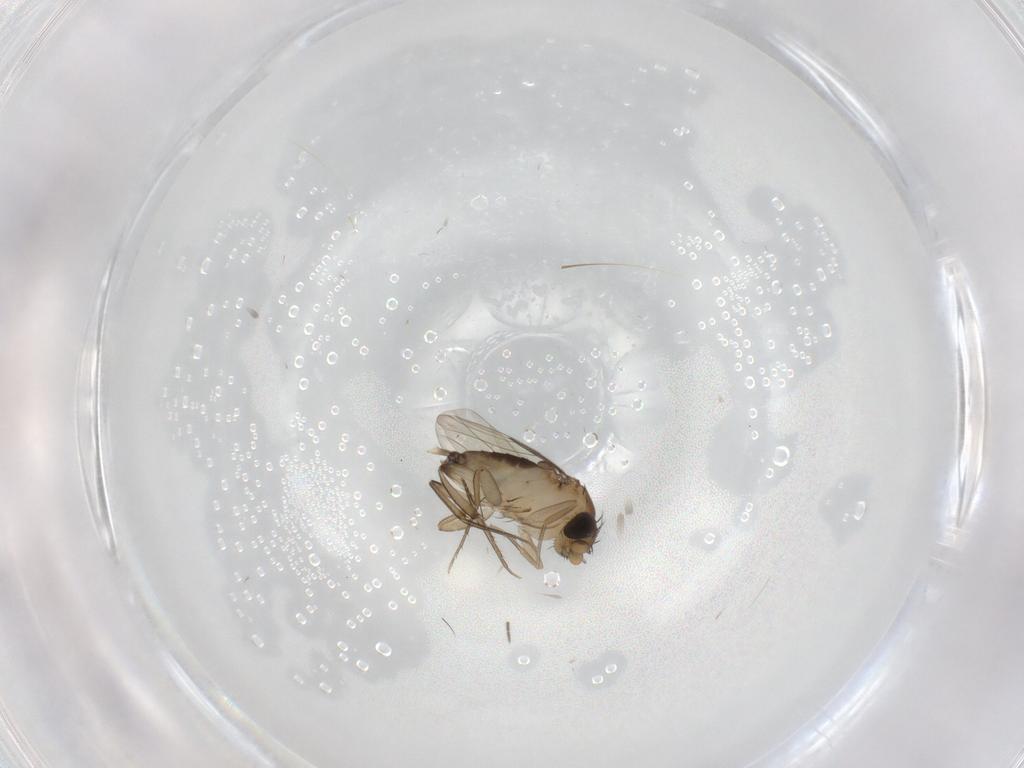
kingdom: Animalia
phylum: Arthropoda
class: Insecta
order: Diptera
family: Phoridae
